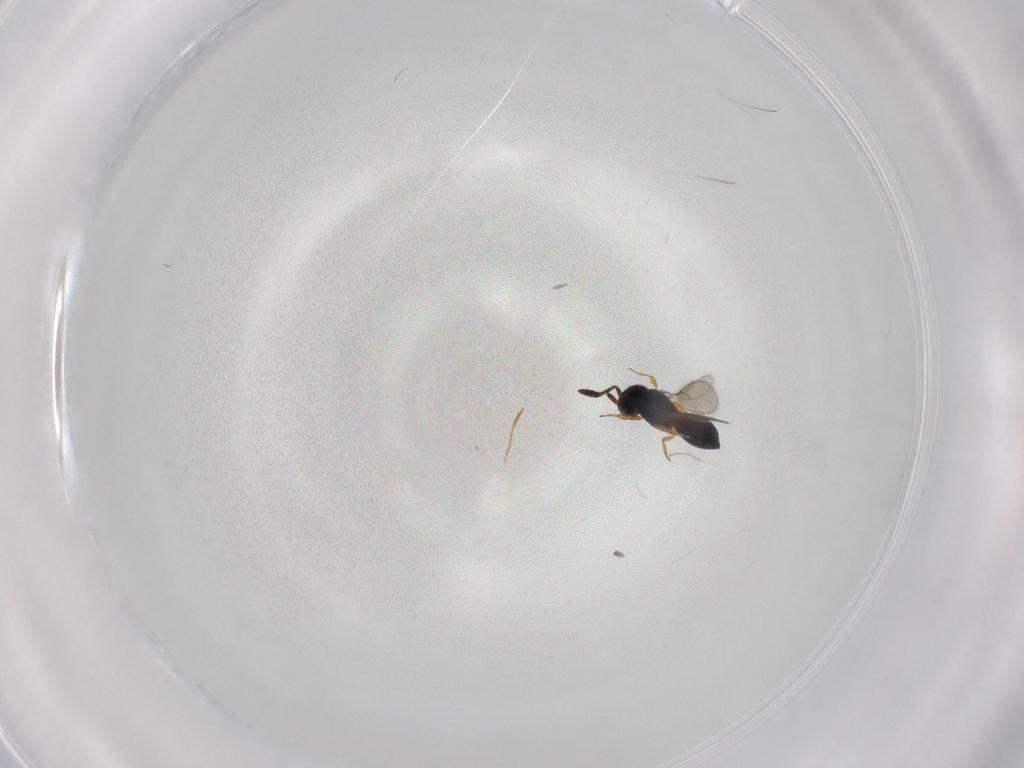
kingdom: Animalia
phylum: Arthropoda
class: Insecta
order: Hymenoptera
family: Scelionidae
